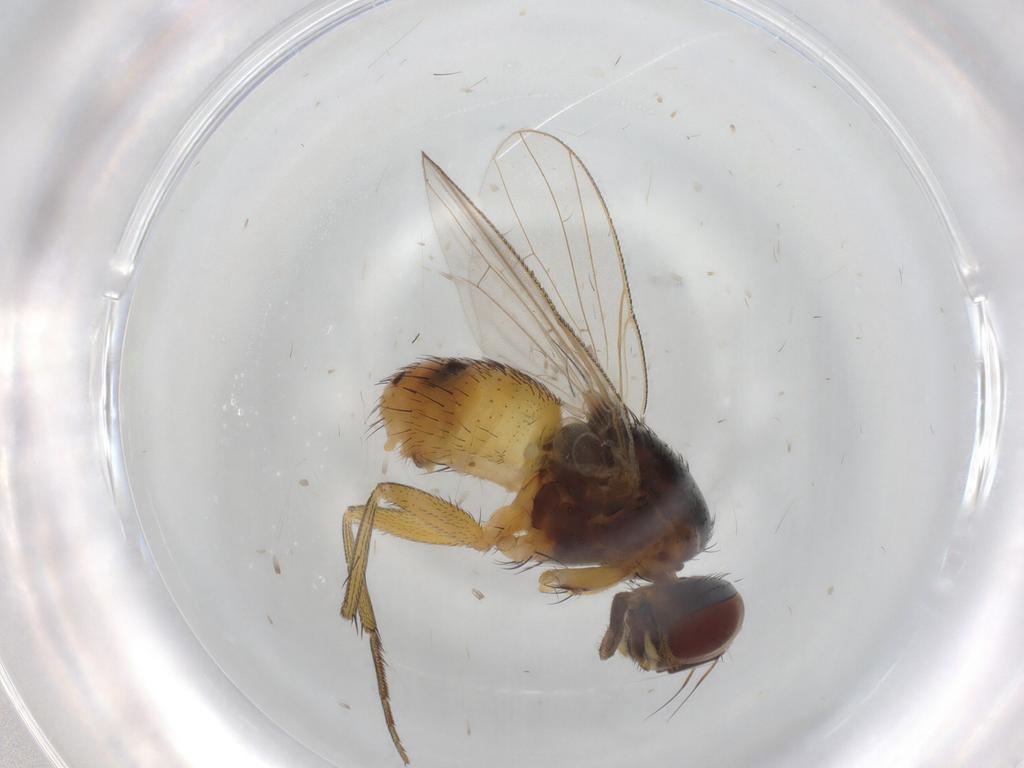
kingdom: Animalia
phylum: Arthropoda
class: Insecta
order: Diptera
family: Muscidae
